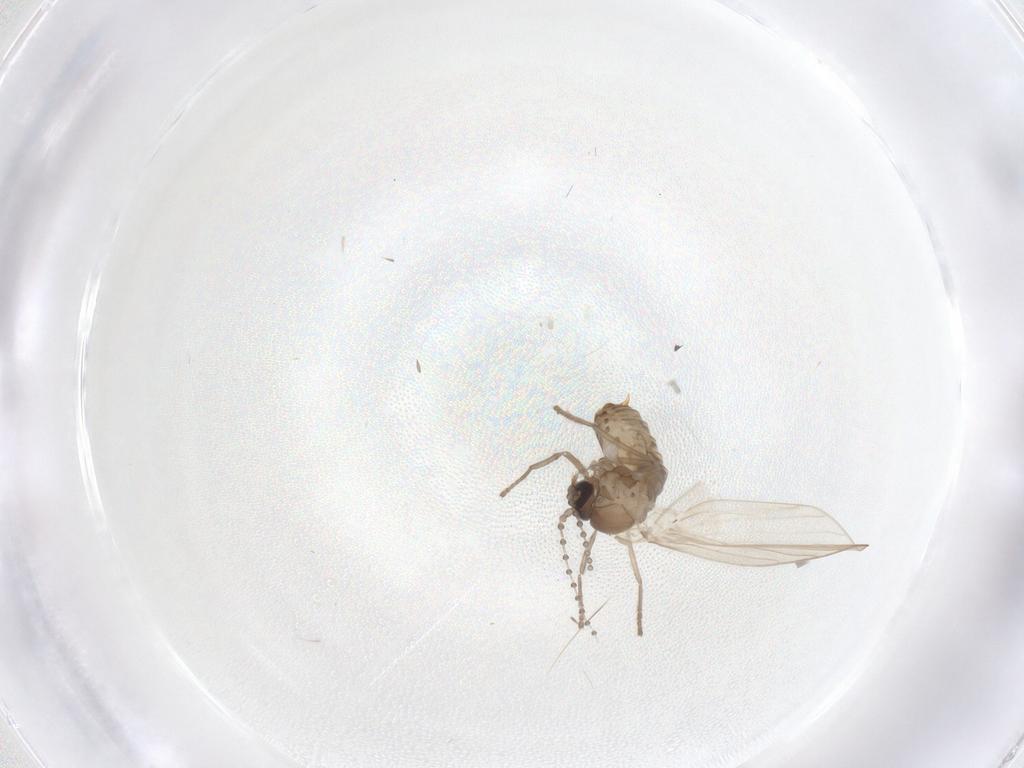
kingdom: Animalia
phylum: Arthropoda
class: Insecta
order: Diptera
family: Psychodidae
